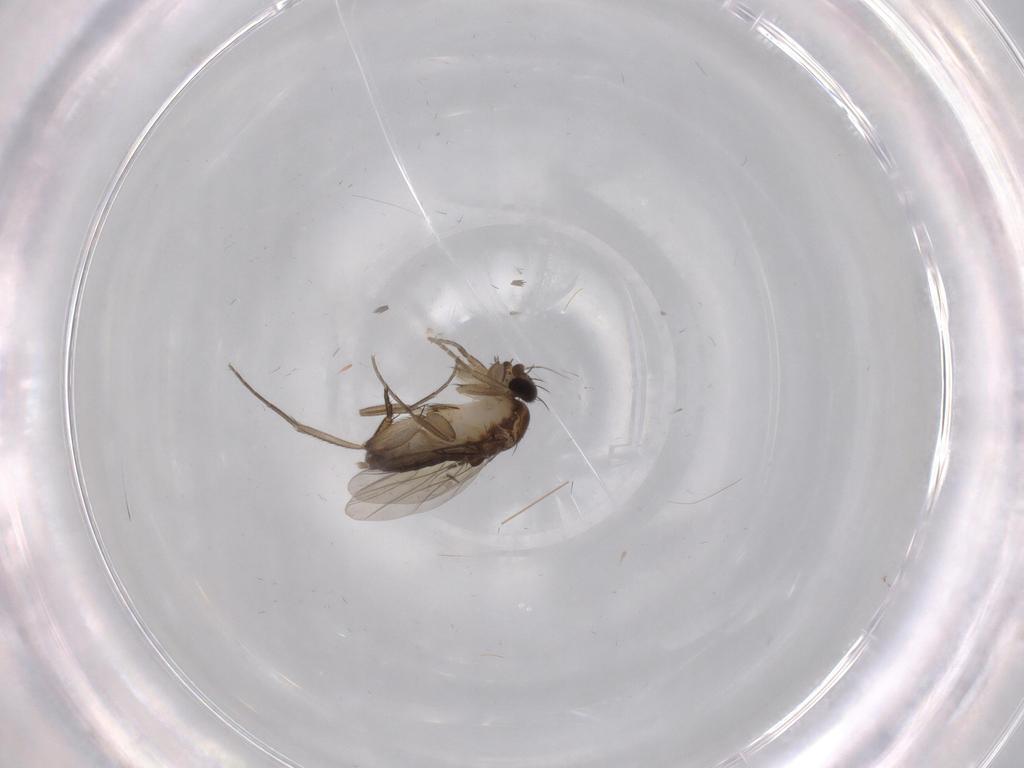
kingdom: Animalia
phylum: Arthropoda
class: Insecta
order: Diptera
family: Phoridae
